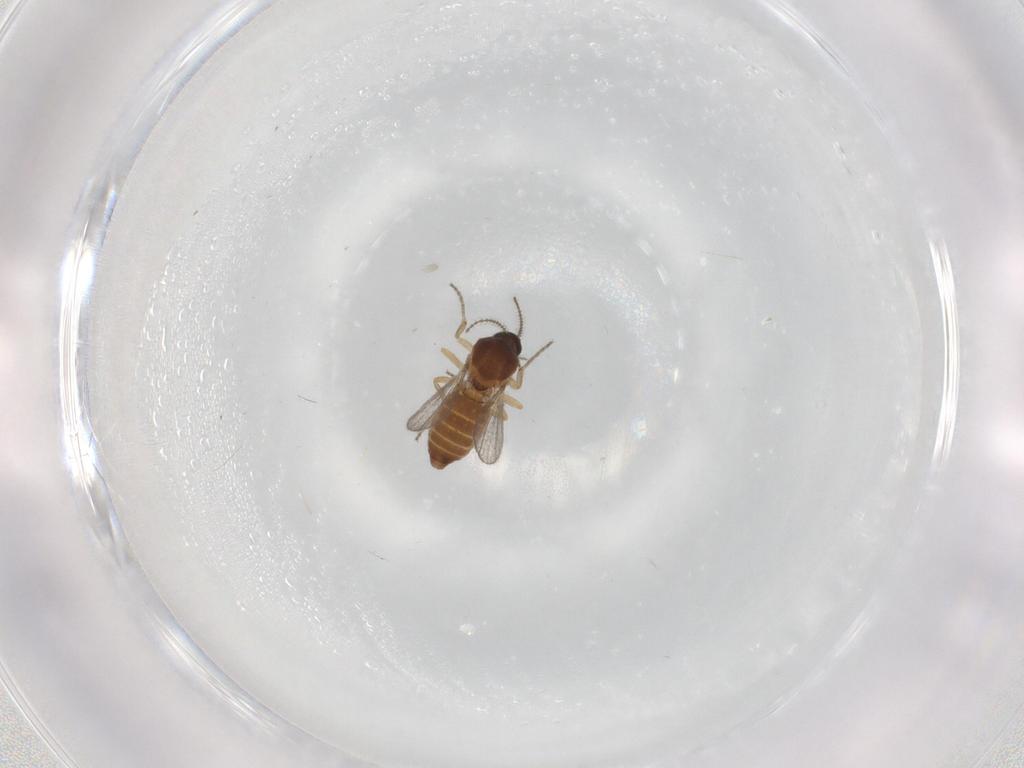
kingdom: Animalia
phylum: Arthropoda
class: Insecta
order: Diptera
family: Ceratopogonidae
